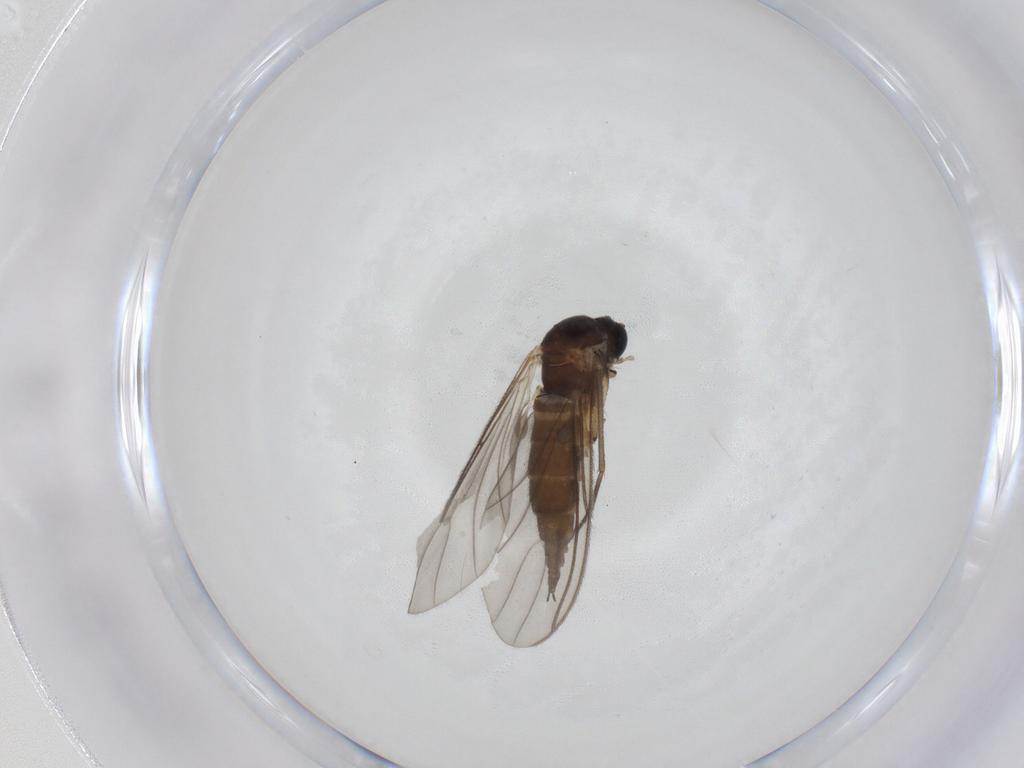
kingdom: Animalia
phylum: Arthropoda
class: Insecta
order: Diptera
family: Sciaridae
